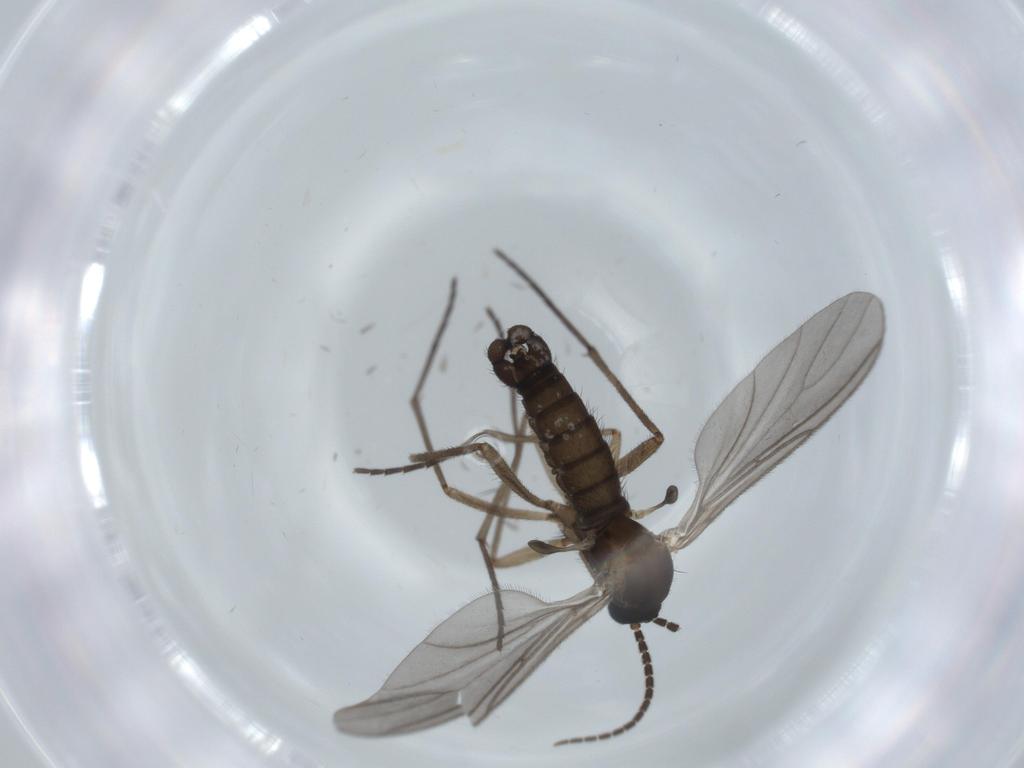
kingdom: Animalia
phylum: Arthropoda
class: Insecta
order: Diptera
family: Sciaridae
